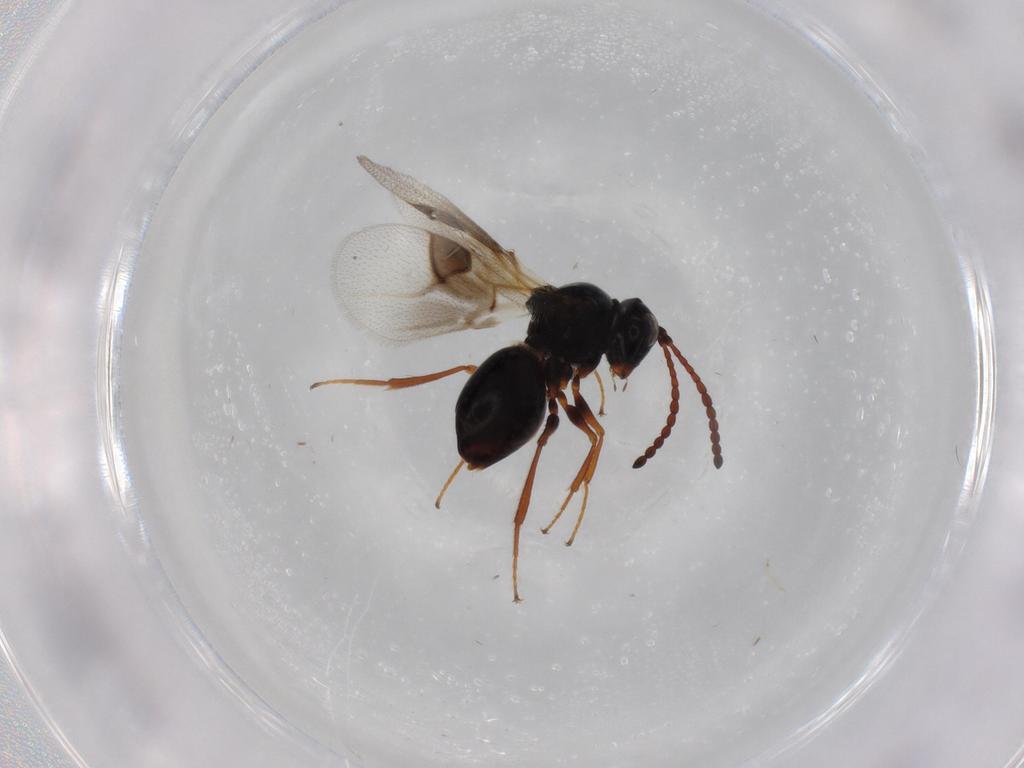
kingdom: Animalia
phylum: Arthropoda
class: Insecta
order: Hymenoptera
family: Figitidae
